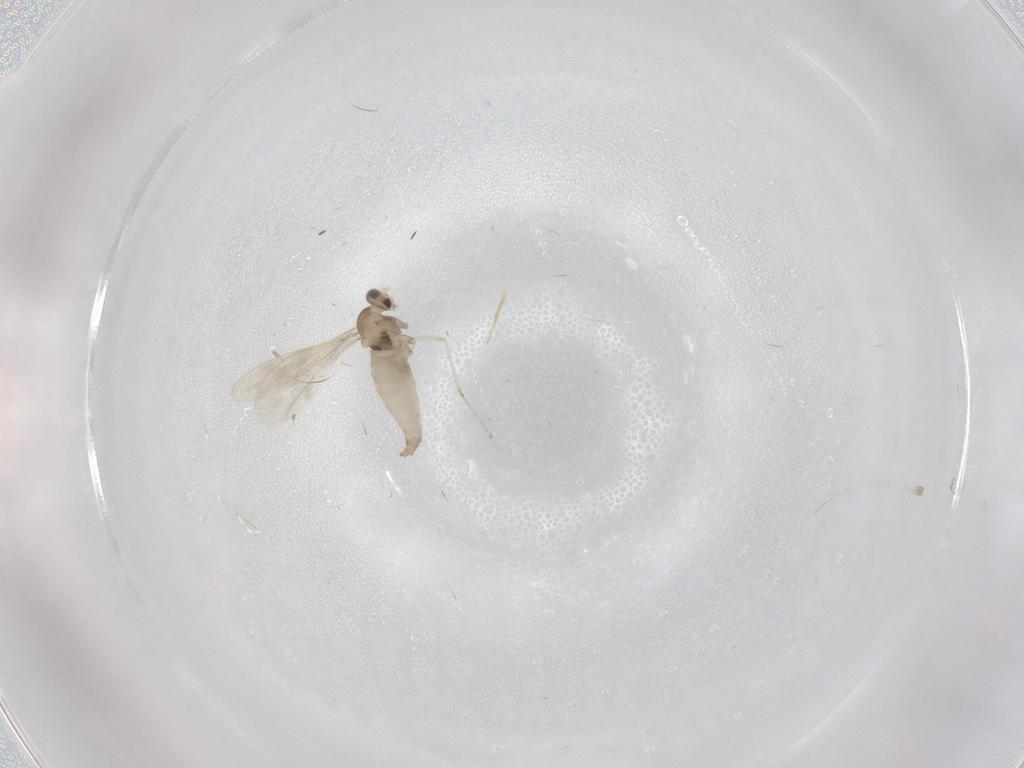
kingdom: Animalia
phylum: Arthropoda
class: Insecta
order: Diptera
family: Cecidomyiidae
